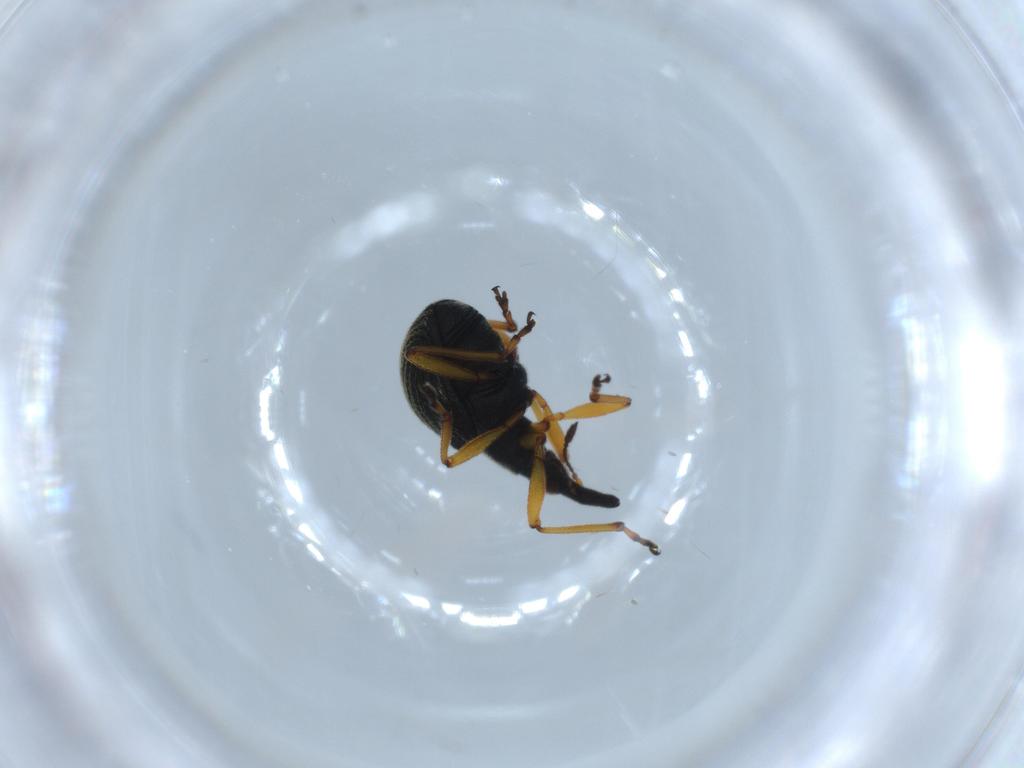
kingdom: Animalia
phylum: Arthropoda
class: Insecta
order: Coleoptera
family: Brentidae
